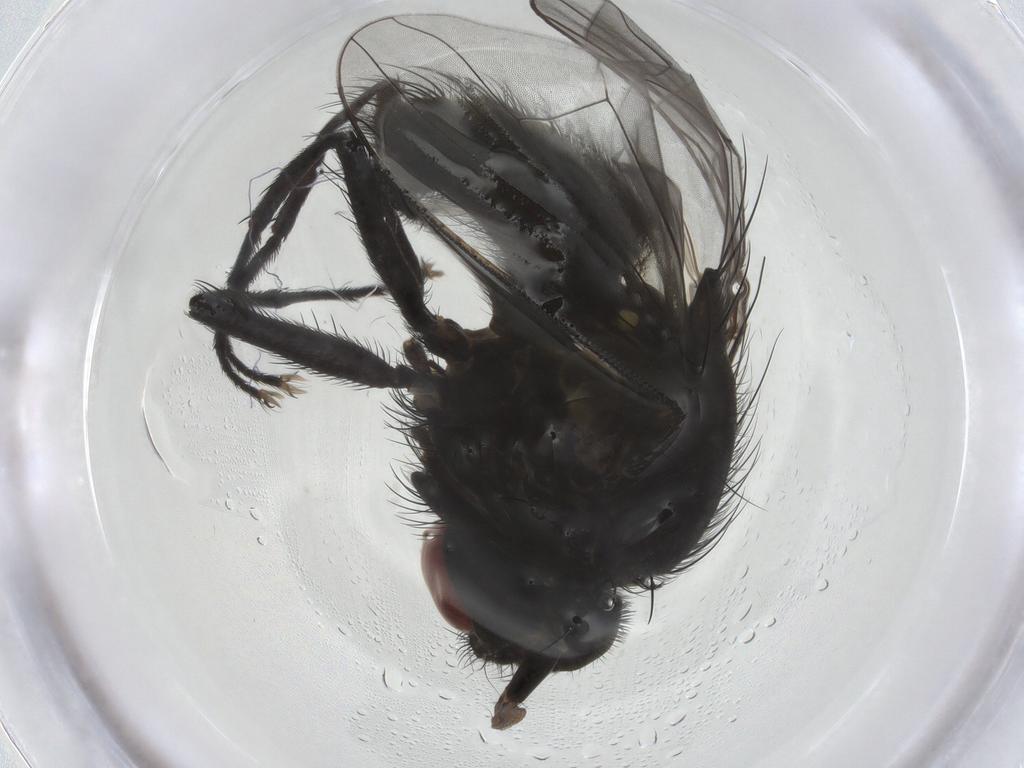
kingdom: Animalia
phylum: Arthropoda
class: Insecta
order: Diptera
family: Muscidae
